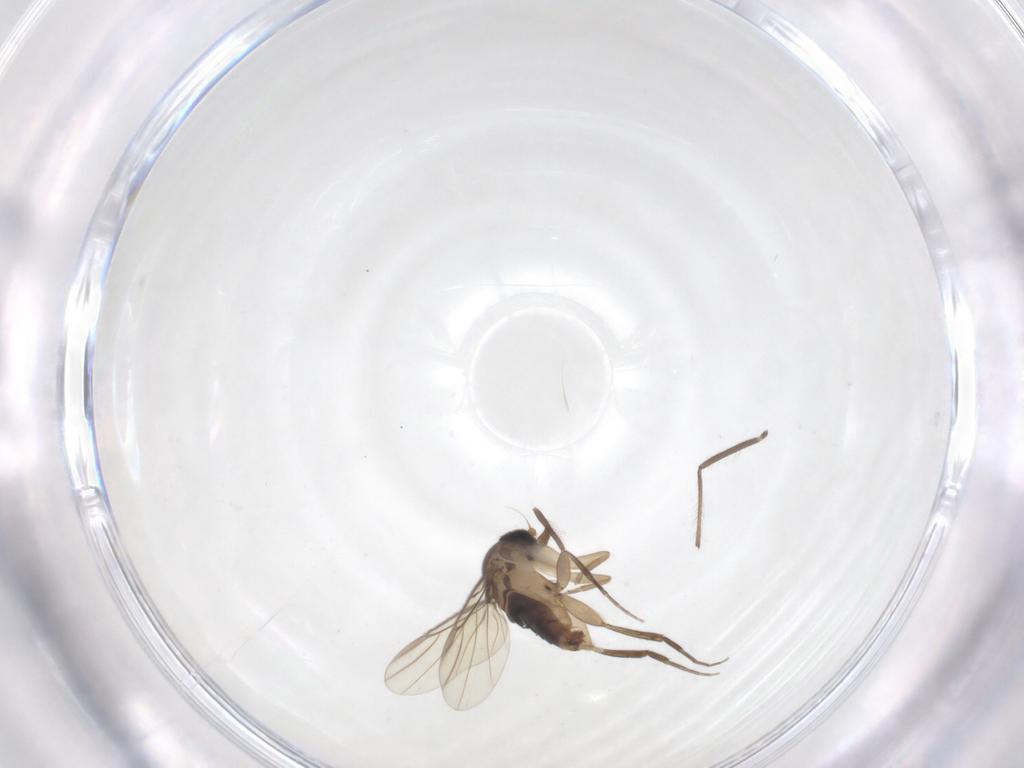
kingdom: Animalia
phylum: Arthropoda
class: Insecta
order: Diptera
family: Phoridae
